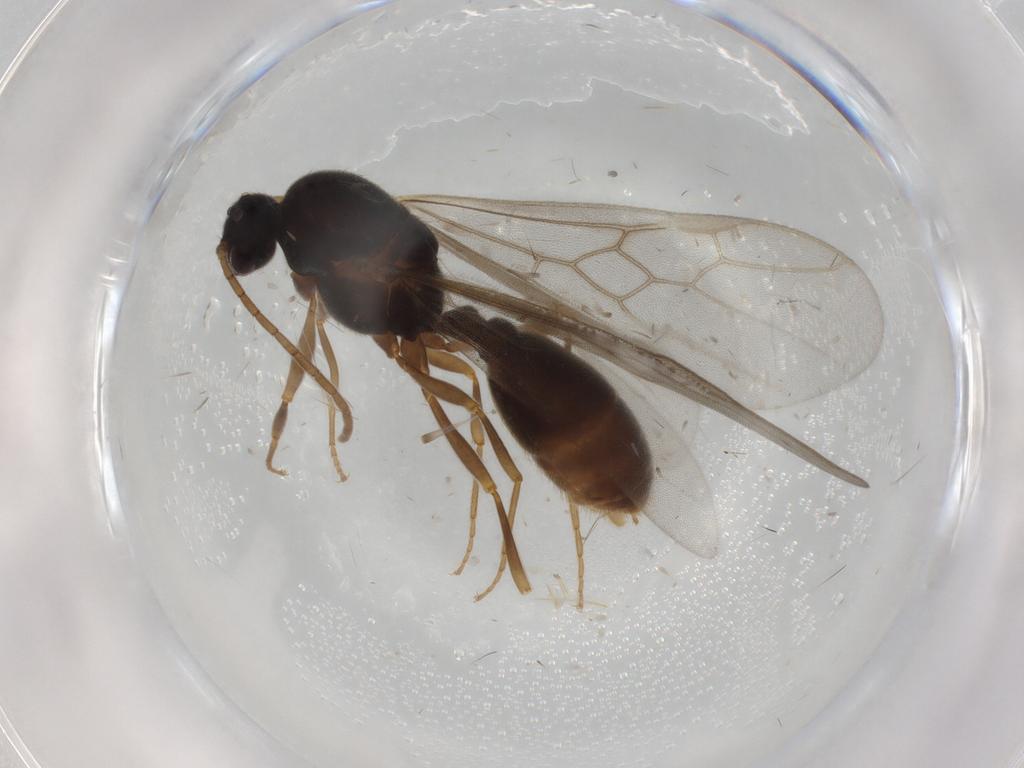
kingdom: Animalia
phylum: Arthropoda
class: Insecta
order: Hymenoptera
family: Formicidae
